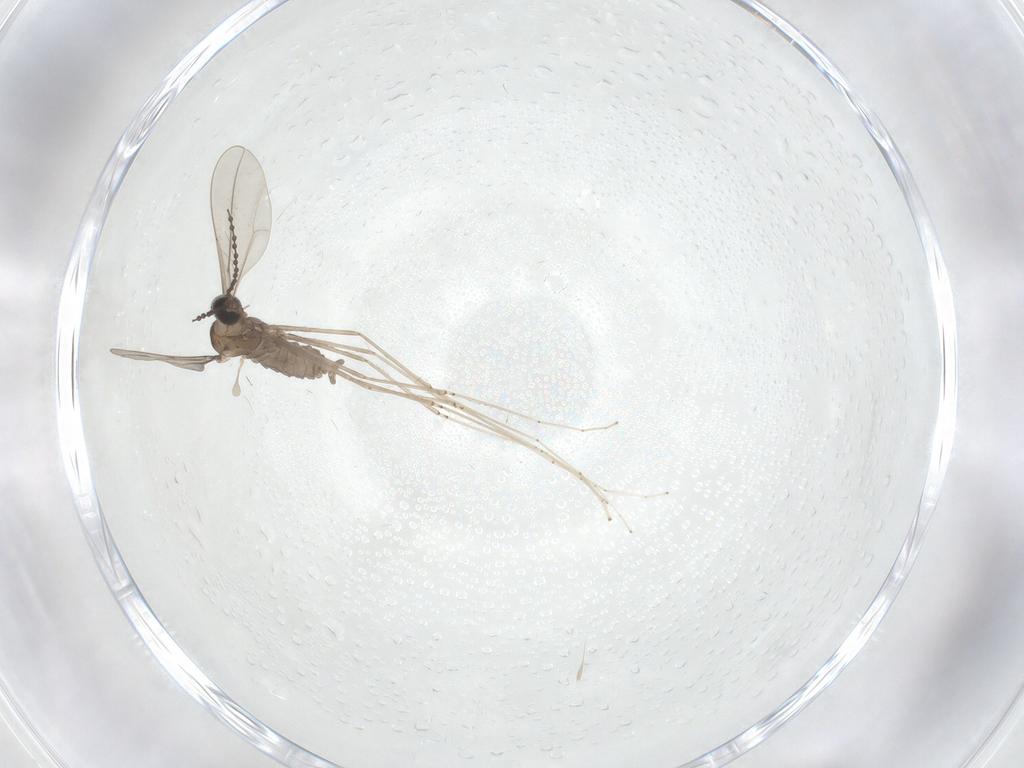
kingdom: Animalia
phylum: Arthropoda
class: Insecta
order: Diptera
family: Cecidomyiidae
